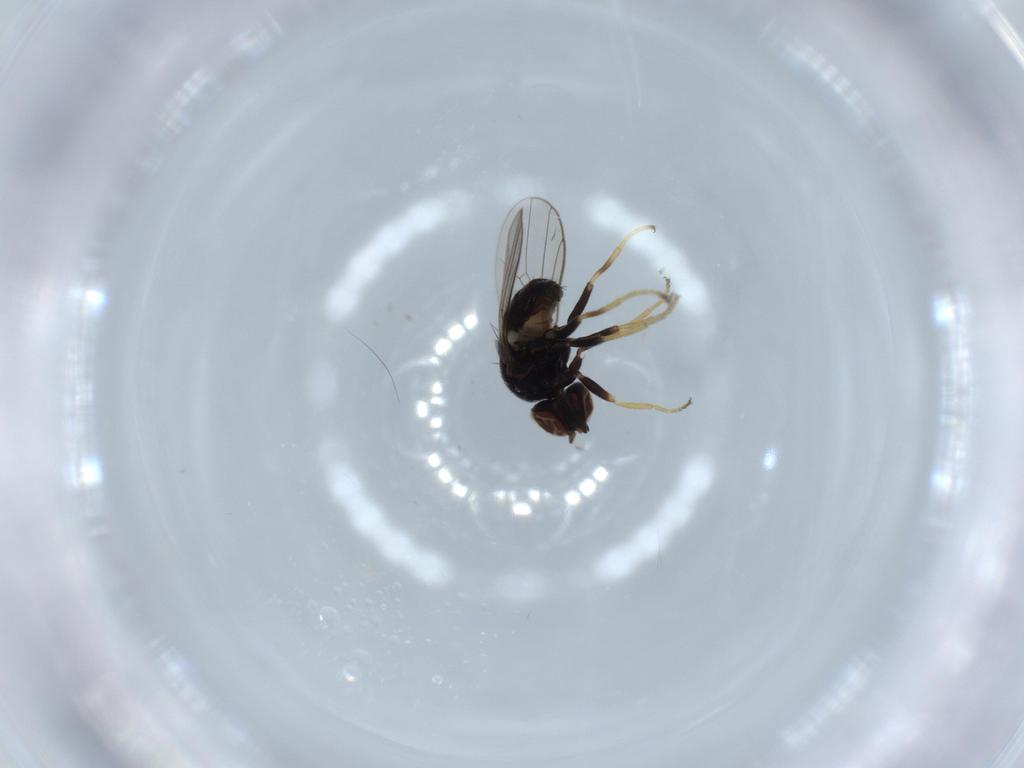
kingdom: Animalia
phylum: Arthropoda
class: Insecta
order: Diptera
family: Chloropidae
